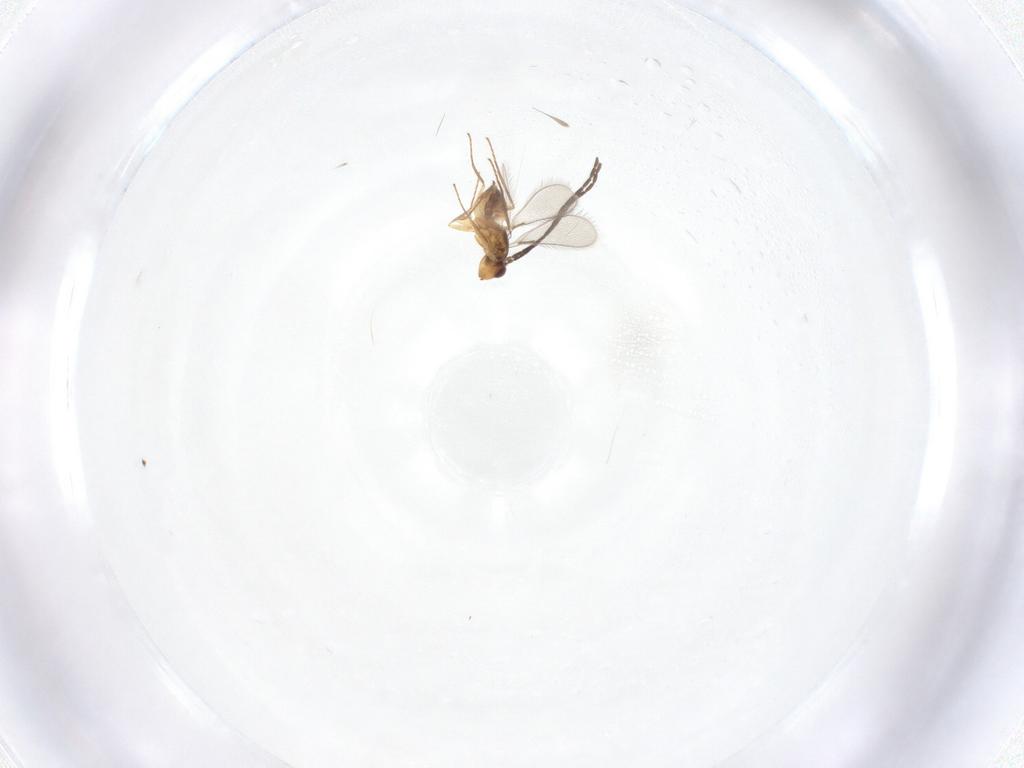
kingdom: Animalia
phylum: Arthropoda
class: Insecta
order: Hymenoptera
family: Mymaridae
